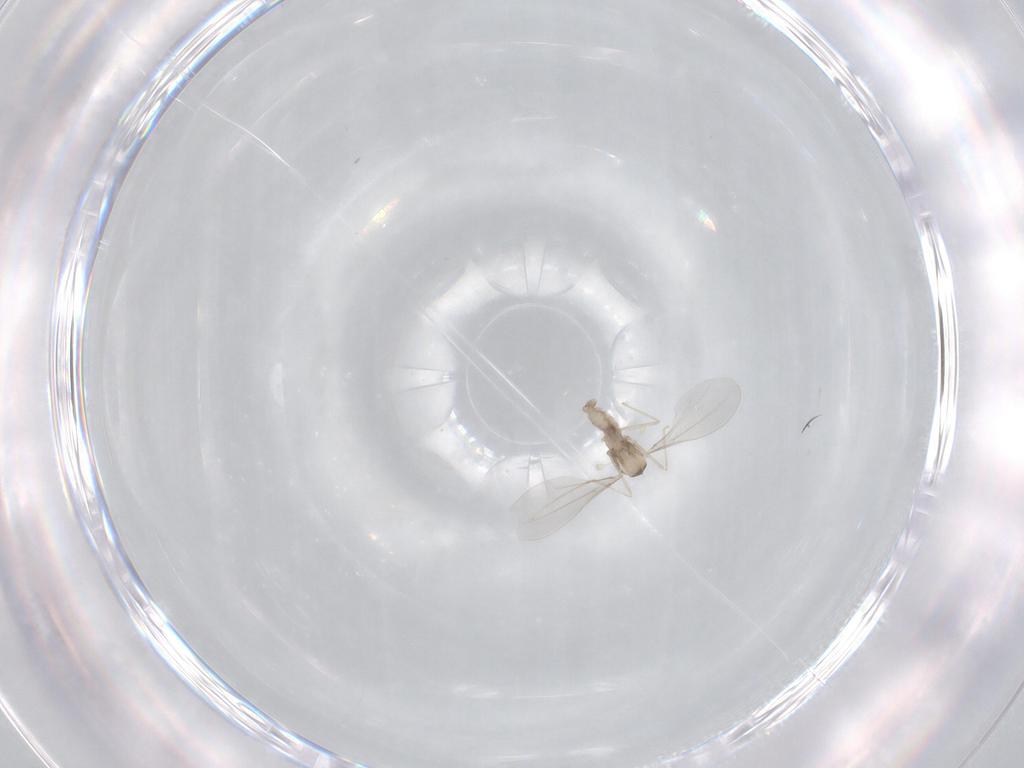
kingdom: Animalia
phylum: Arthropoda
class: Insecta
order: Diptera
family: Cecidomyiidae
